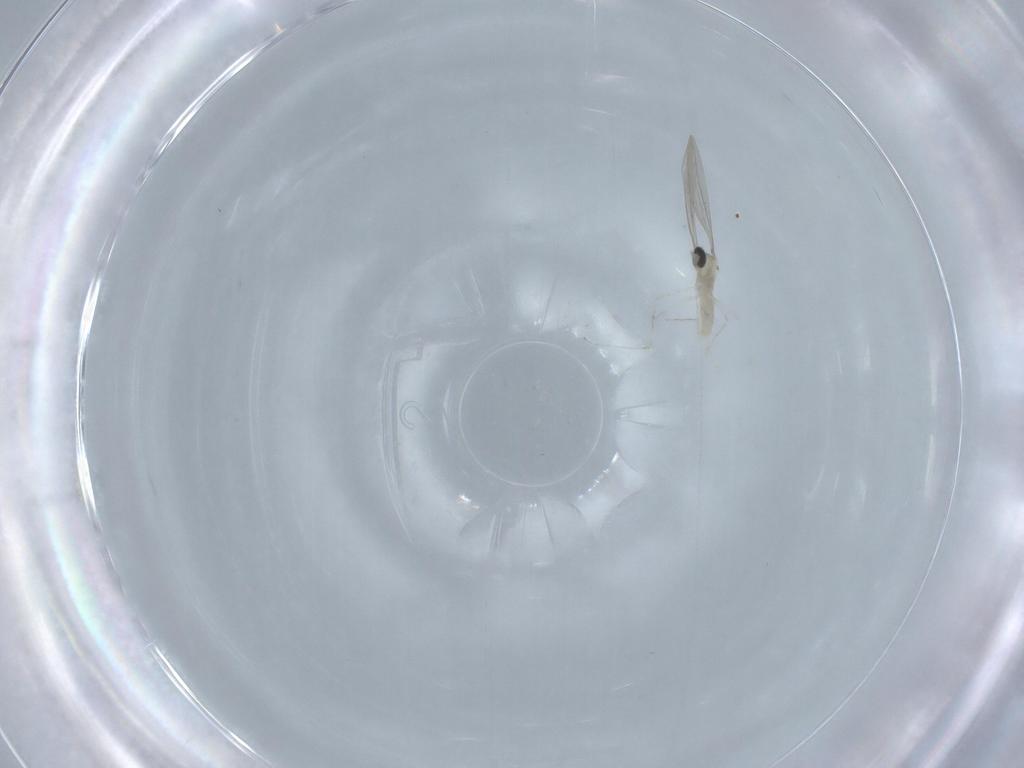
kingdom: Animalia
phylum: Arthropoda
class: Insecta
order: Diptera
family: Cecidomyiidae
